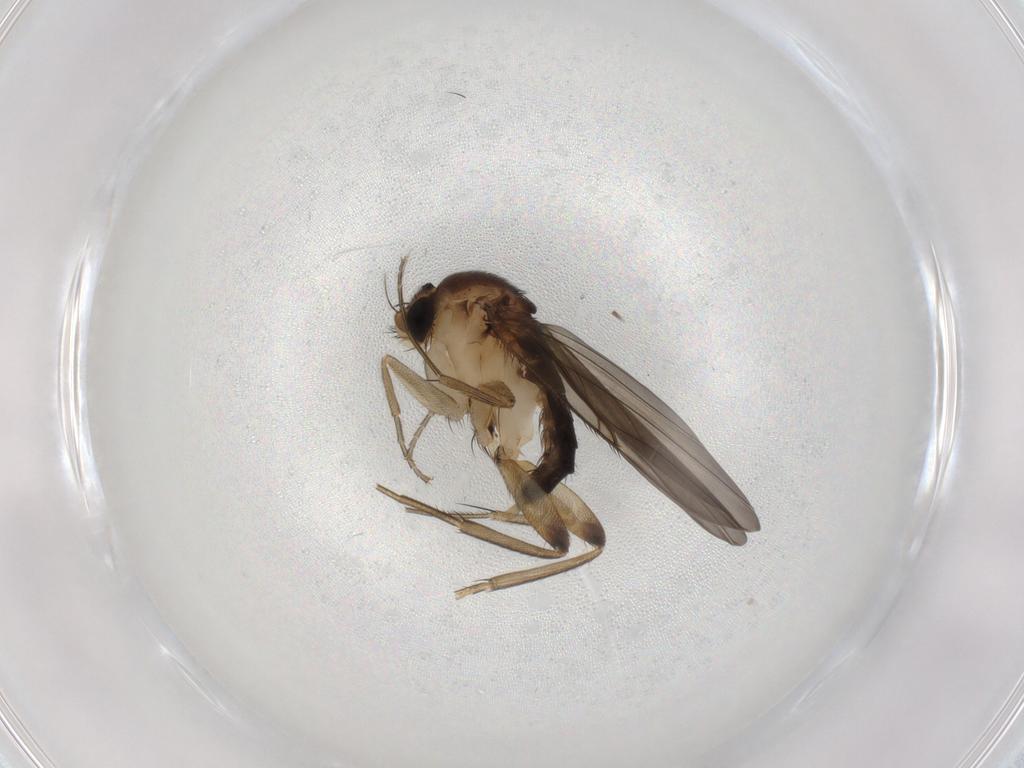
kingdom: Animalia
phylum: Arthropoda
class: Insecta
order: Diptera
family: Phoridae
